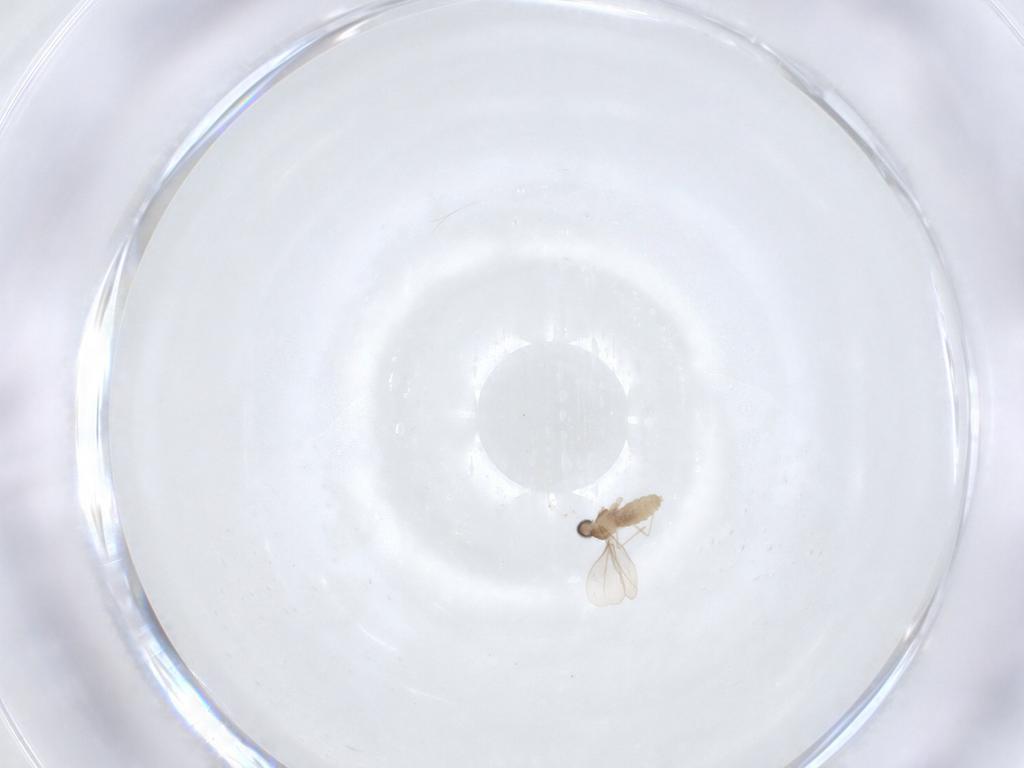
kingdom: Animalia
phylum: Arthropoda
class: Insecta
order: Diptera
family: Cecidomyiidae
